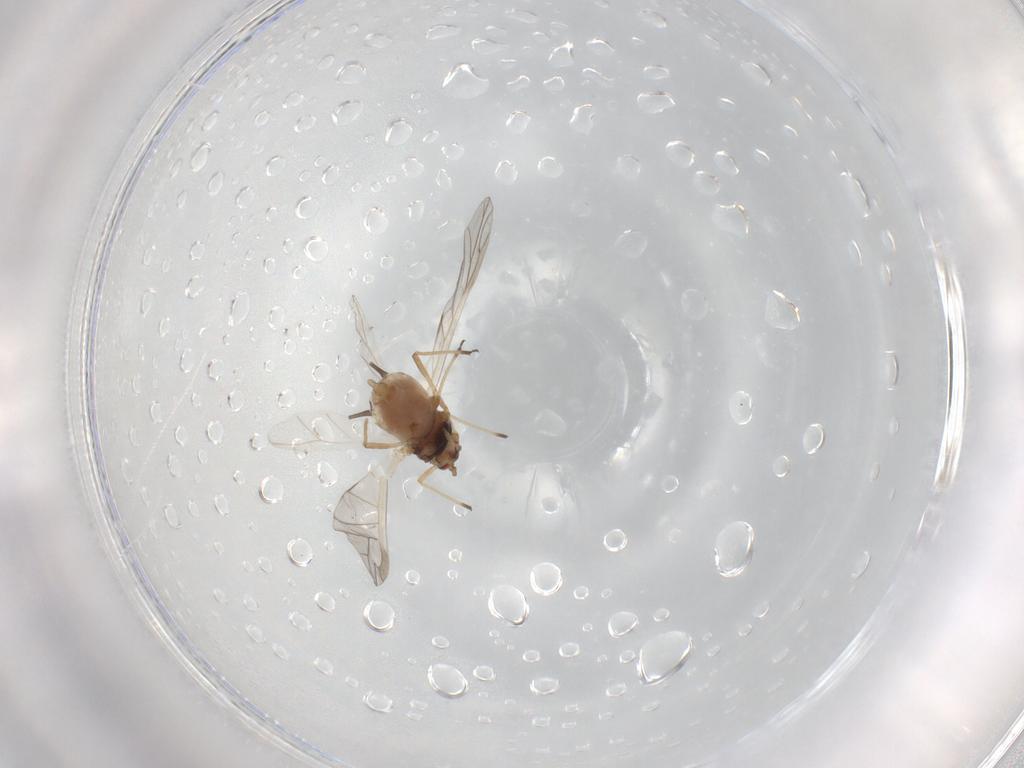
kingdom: Animalia
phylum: Arthropoda
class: Insecta
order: Hemiptera
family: Aphididae
